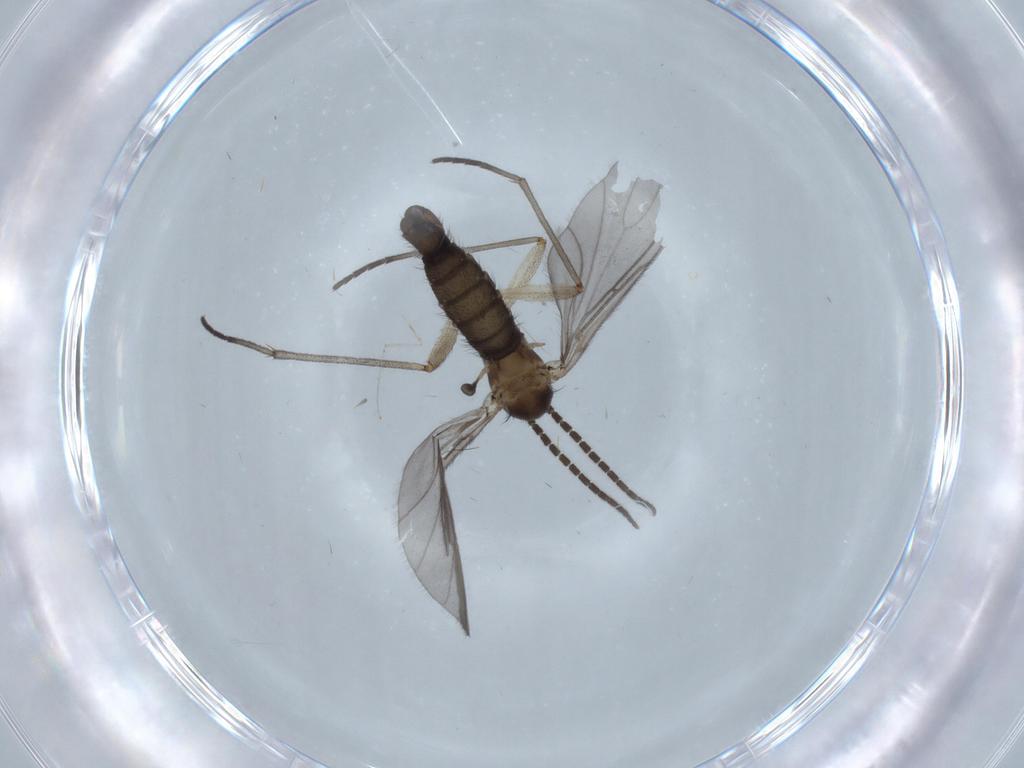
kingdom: Animalia
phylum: Arthropoda
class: Insecta
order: Diptera
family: Sciaridae
